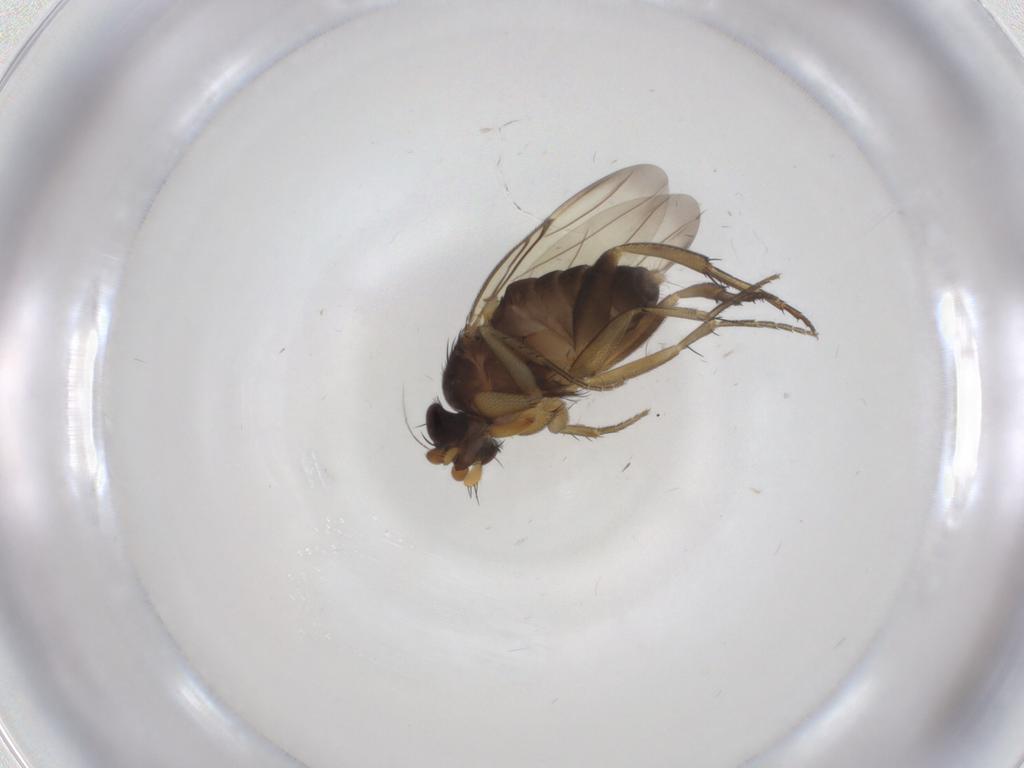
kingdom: Animalia
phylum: Arthropoda
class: Insecta
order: Diptera
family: Phoridae
